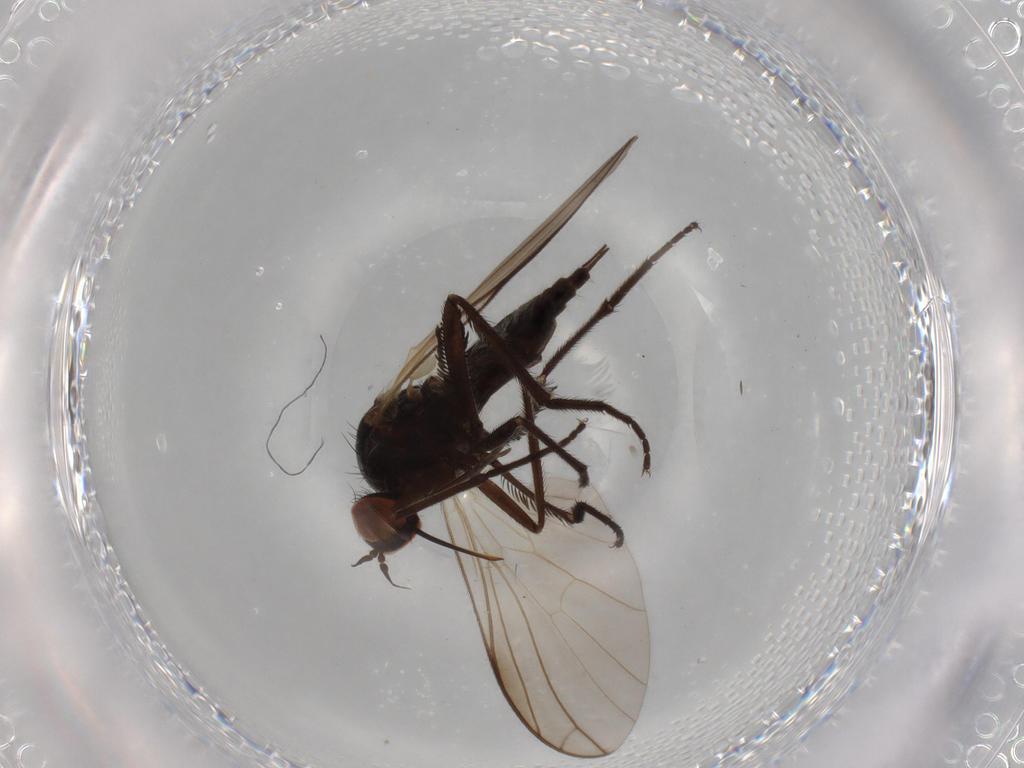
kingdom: Animalia
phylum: Arthropoda
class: Insecta
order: Diptera
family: Empididae
